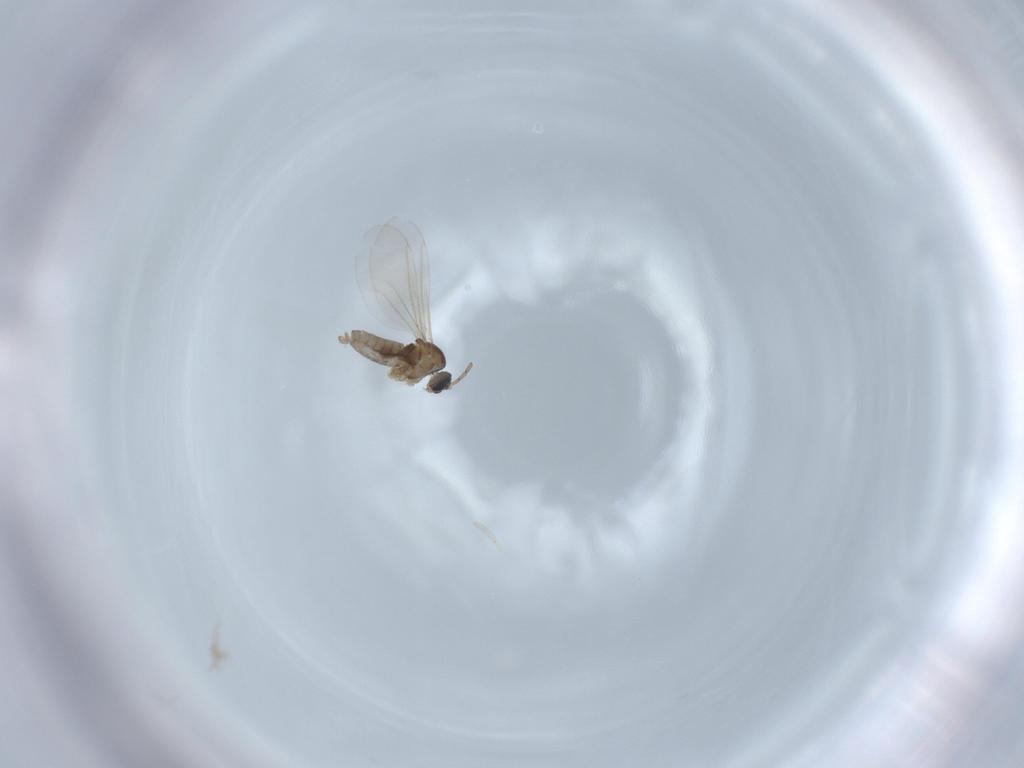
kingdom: Animalia
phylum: Arthropoda
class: Insecta
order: Diptera
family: Cecidomyiidae
